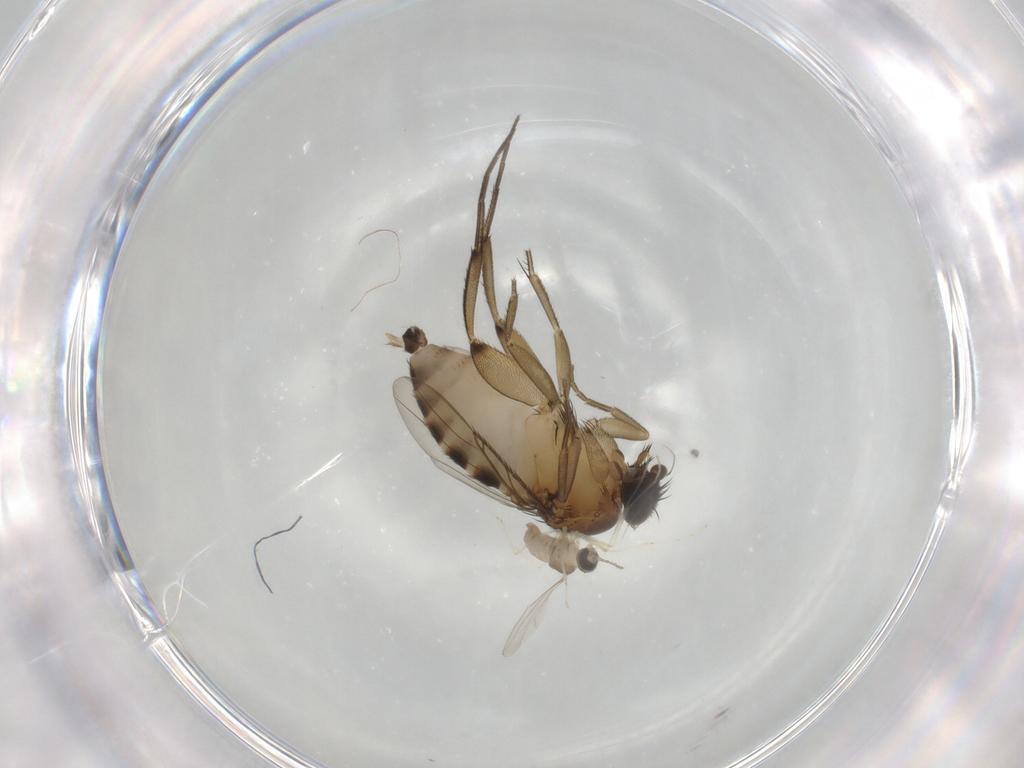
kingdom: Animalia
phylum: Arthropoda
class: Insecta
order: Diptera
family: Phoridae
